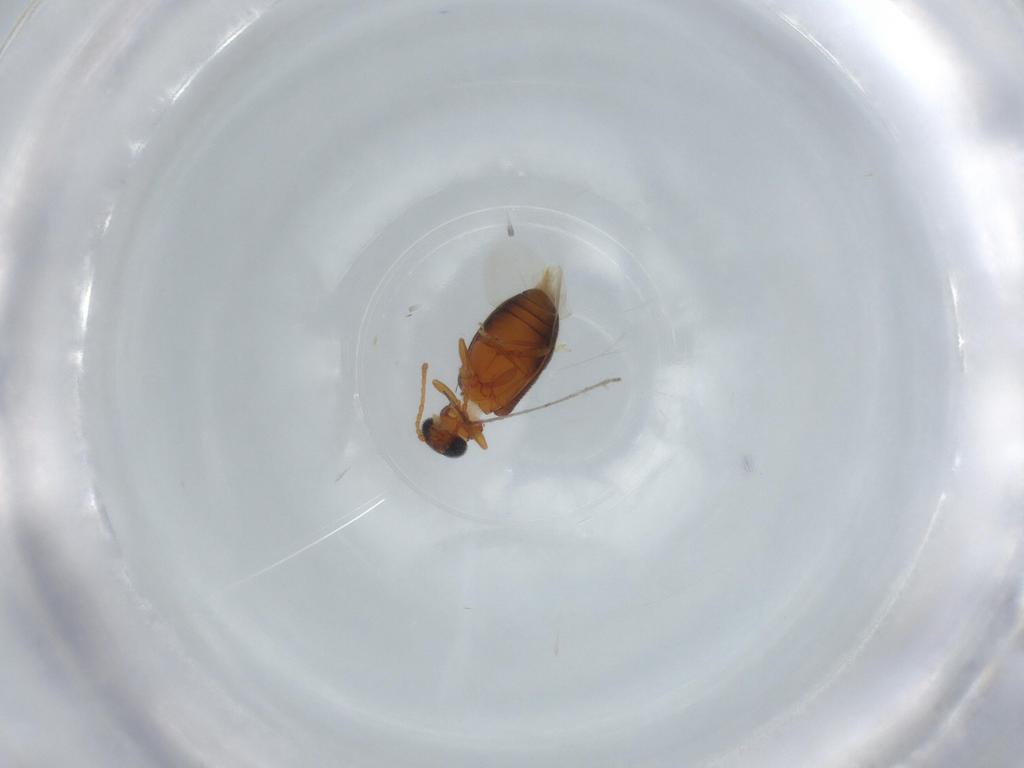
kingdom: Animalia
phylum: Arthropoda
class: Insecta
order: Coleoptera
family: Aderidae
